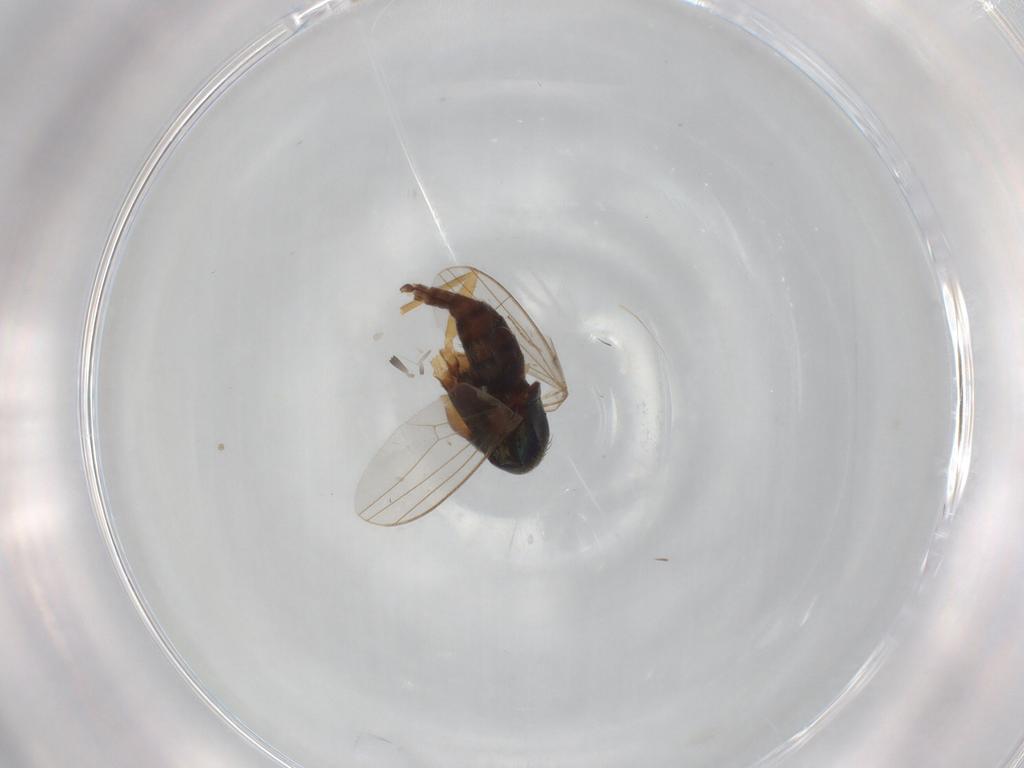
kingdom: Animalia
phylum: Arthropoda
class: Insecta
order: Diptera
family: Dolichopodidae
